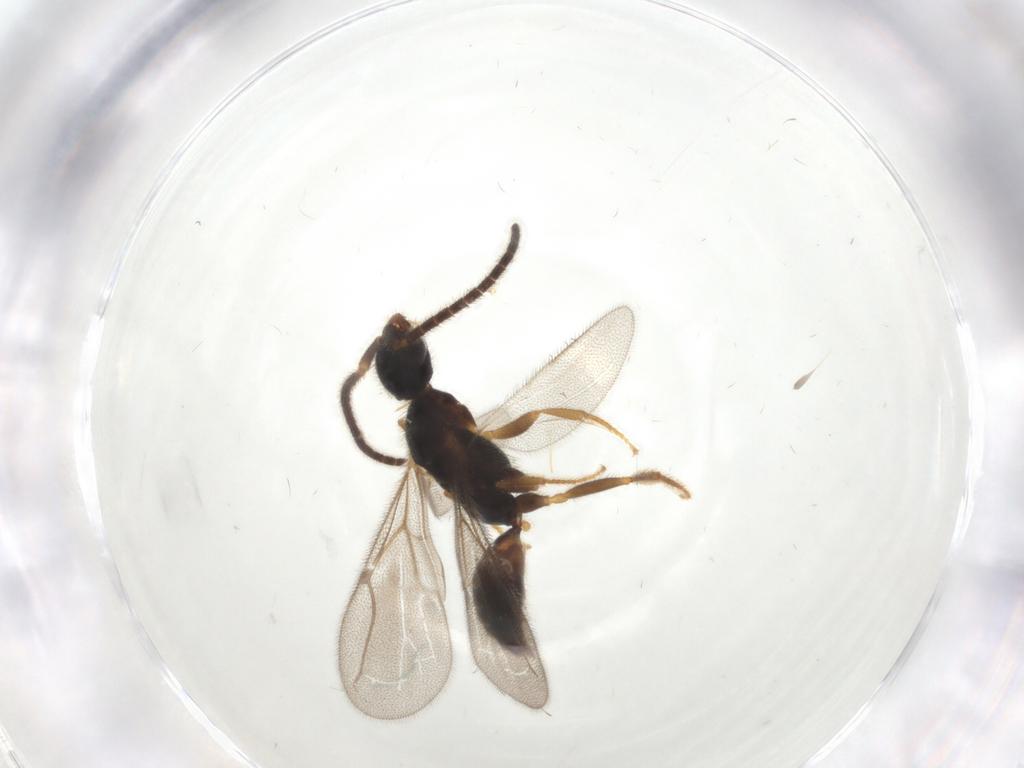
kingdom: Animalia
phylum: Arthropoda
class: Insecta
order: Hymenoptera
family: Bethylidae
